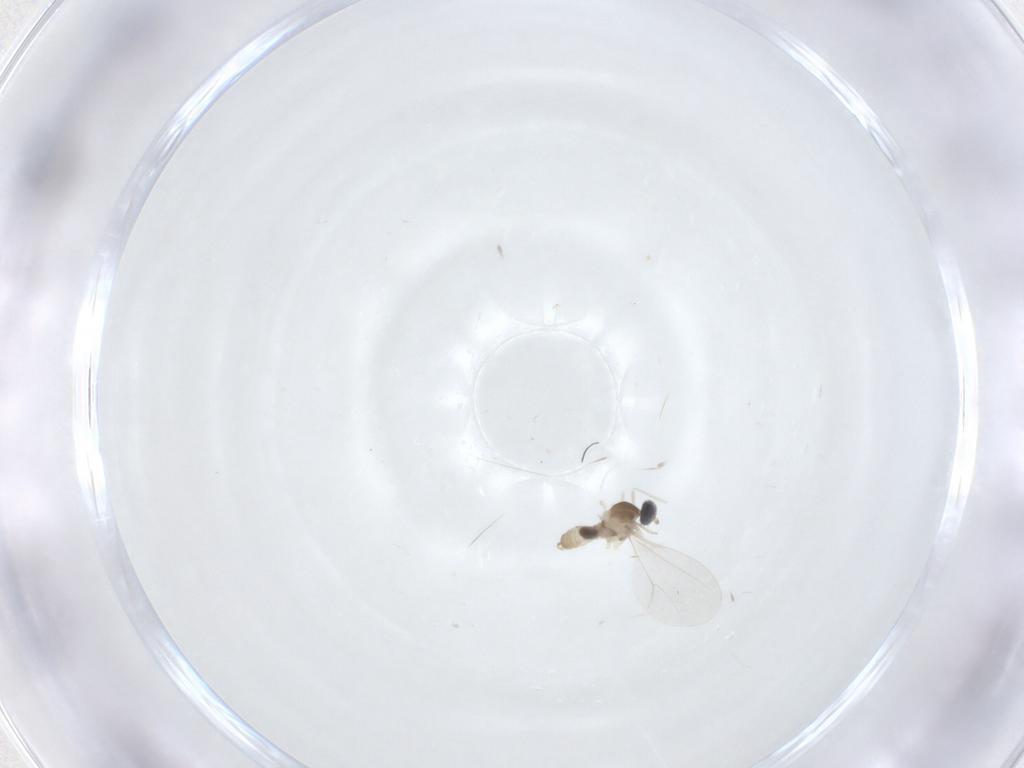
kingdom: Animalia
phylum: Arthropoda
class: Insecta
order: Diptera
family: Cecidomyiidae
